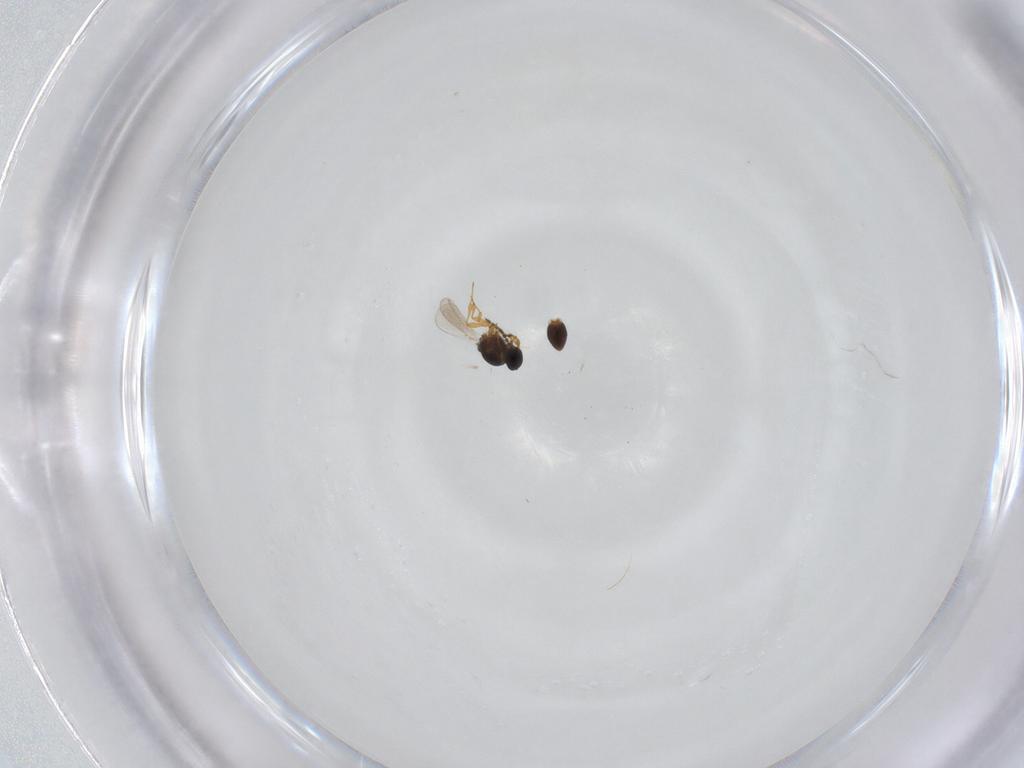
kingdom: Animalia
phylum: Arthropoda
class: Insecta
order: Hymenoptera
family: Platygastridae
